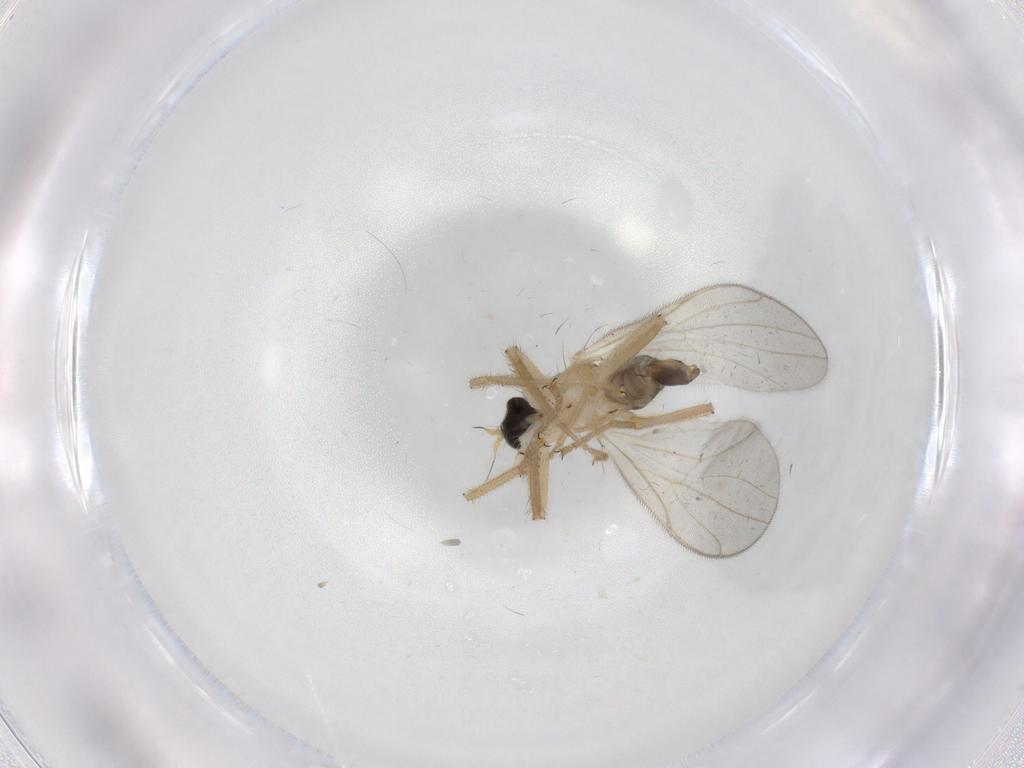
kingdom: Animalia
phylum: Arthropoda
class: Insecta
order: Diptera
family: Hybotidae
